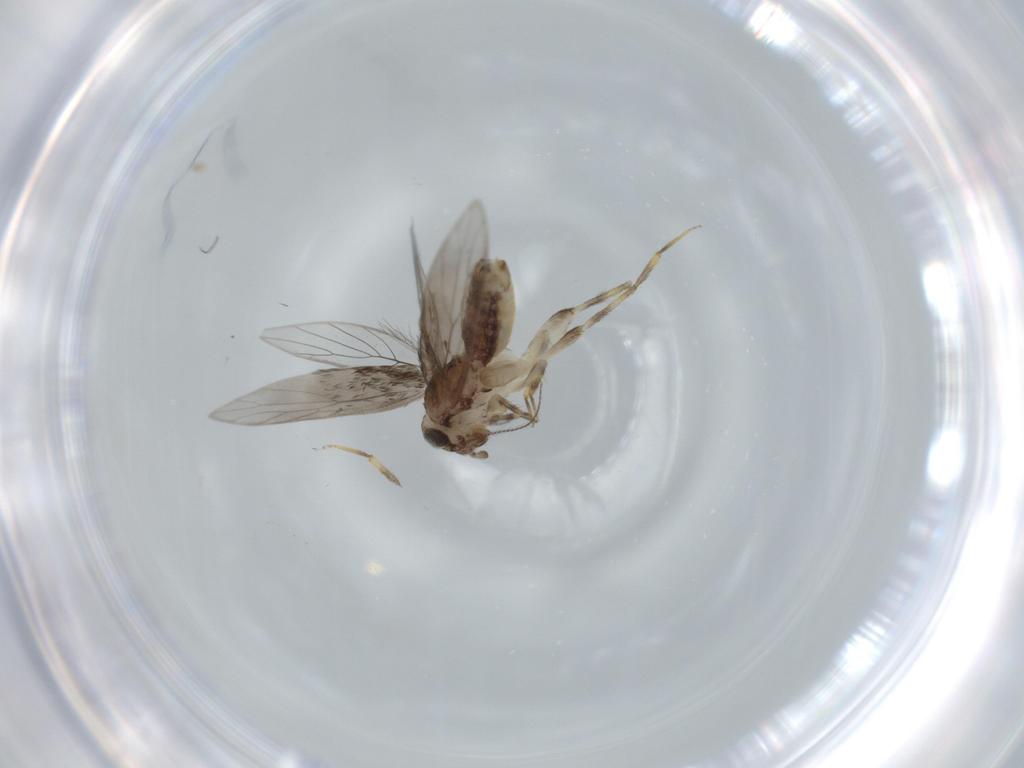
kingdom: Animalia
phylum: Arthropoda
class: Insecta
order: Psocodea
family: Lepidopsocidae
